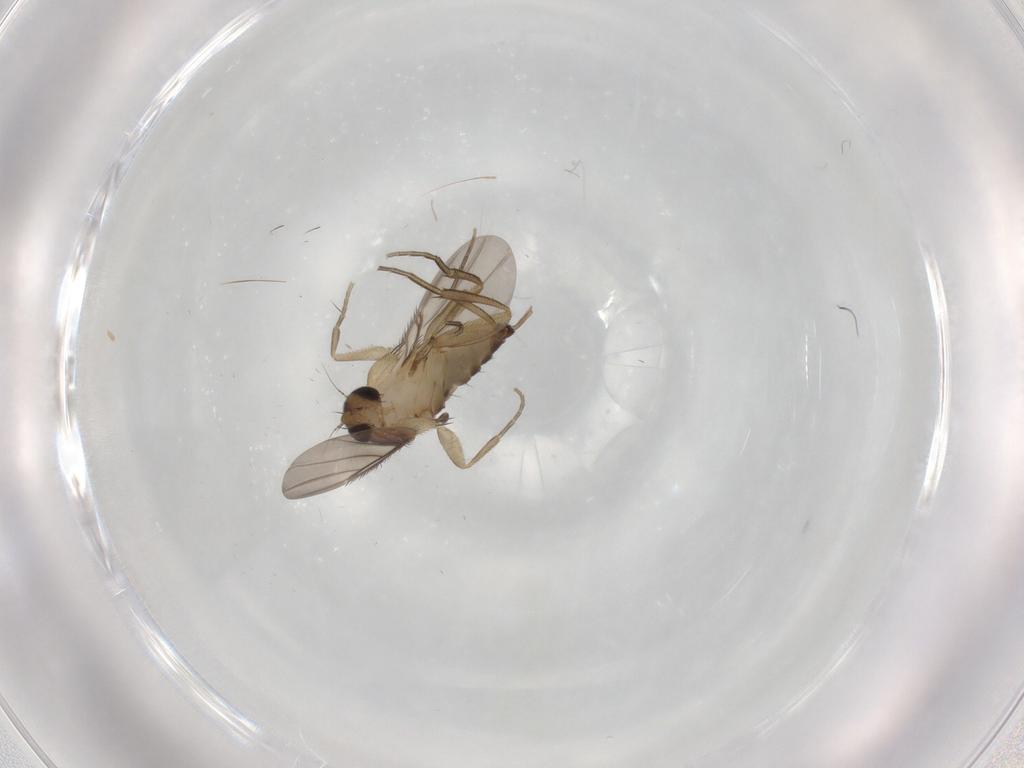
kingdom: Animalia
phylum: Arthropoda
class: Insecta
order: Diptera
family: Phoridae
